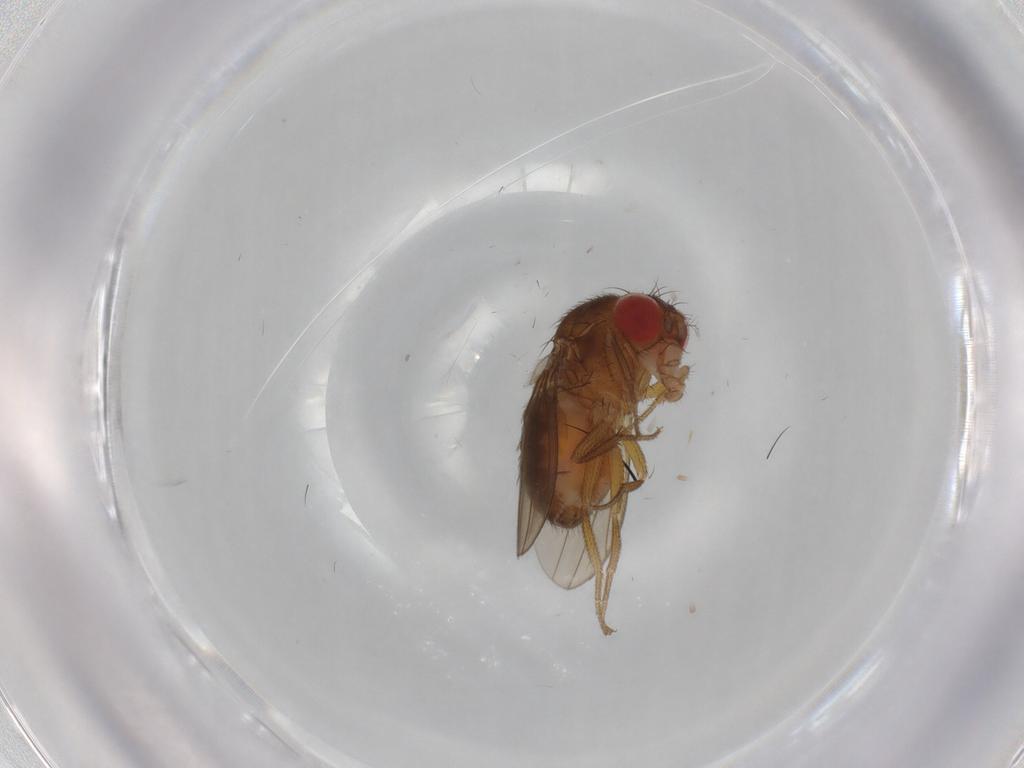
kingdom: Animalia
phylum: Arthropoda
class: Insecta
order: Diptera
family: Drosophilidae
